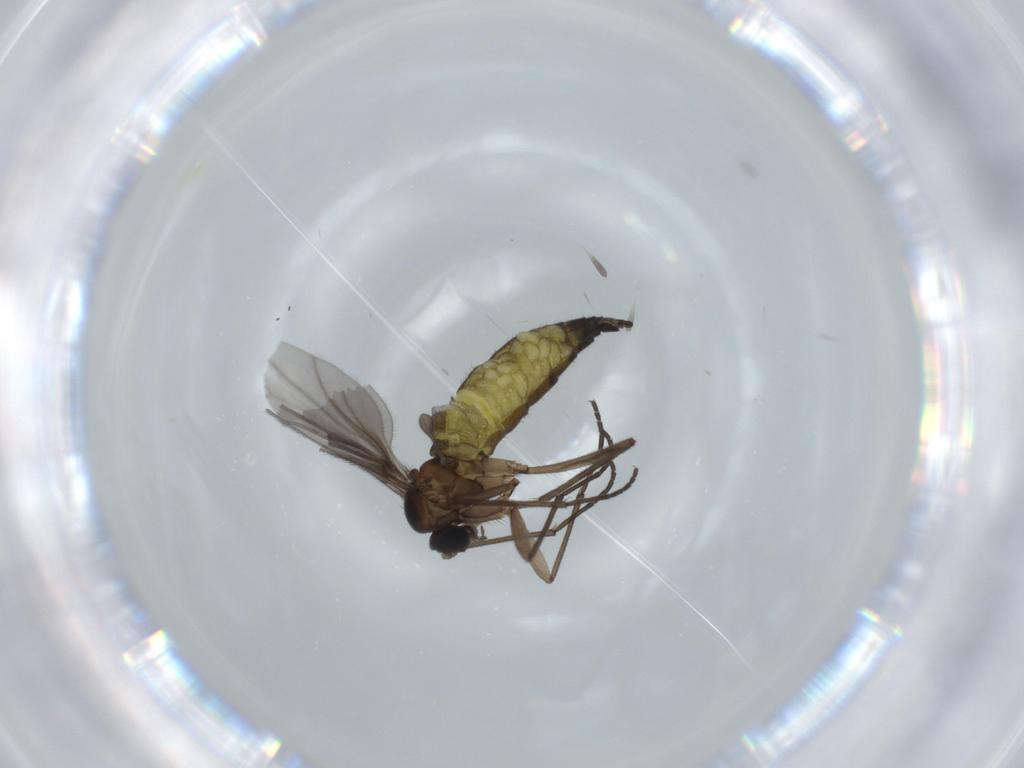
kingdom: Animalia
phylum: Arthropoda
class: Insecta
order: Diptera
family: Sciaridae
